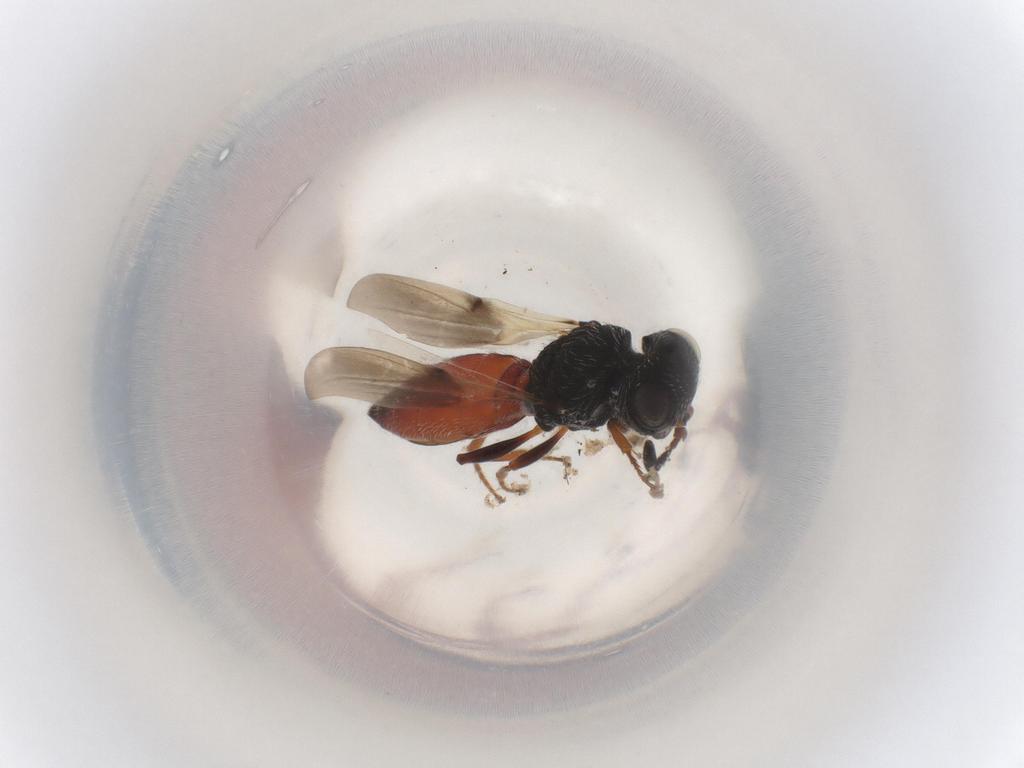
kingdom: Animalia
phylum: Arthropoda
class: Insecta
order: Hymenoptera
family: Scelionidae
